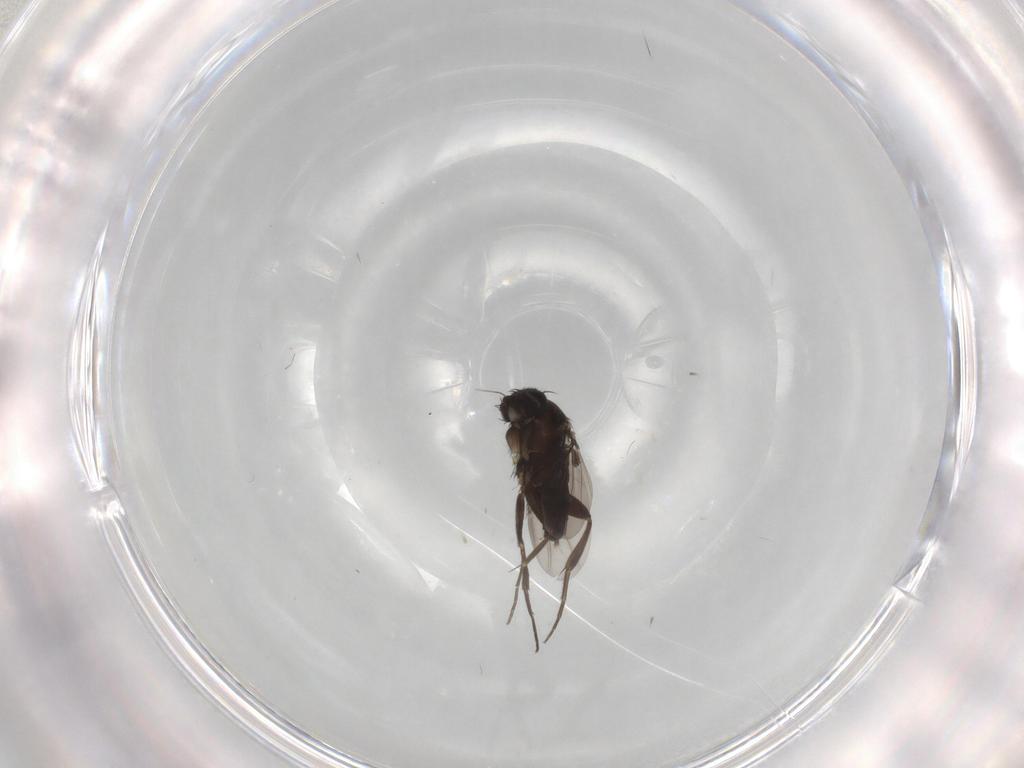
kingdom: Animalia
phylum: Arthropoda
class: Insecta
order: Diptera
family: Phoridae
